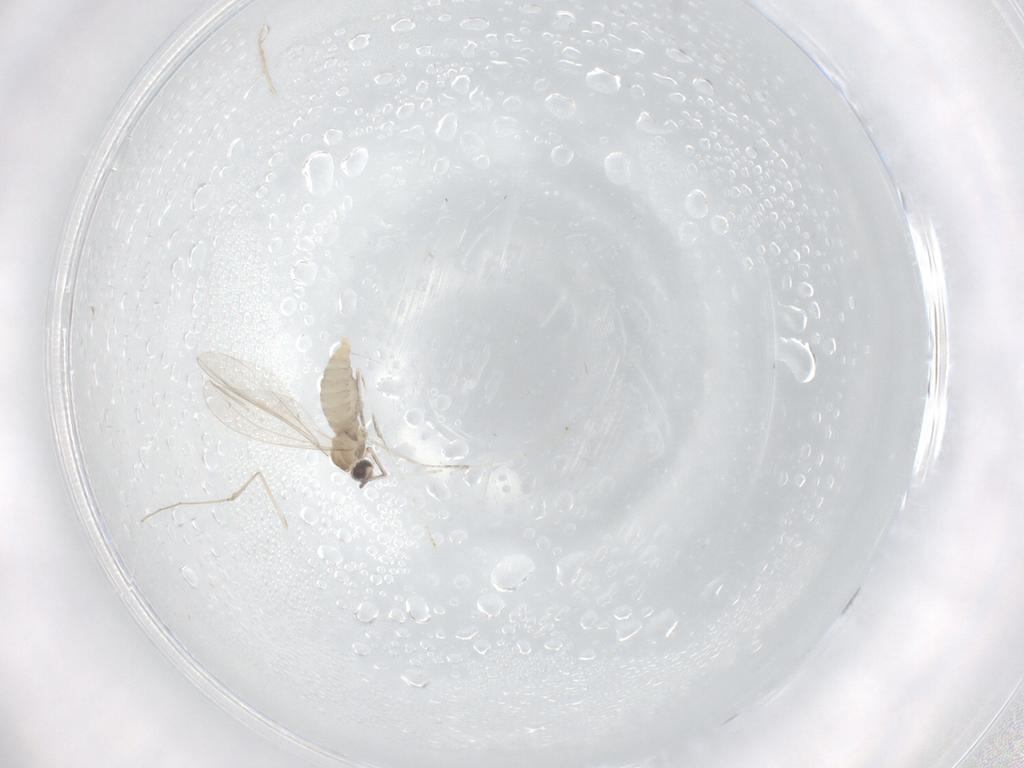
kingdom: Animalia
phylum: Arthropoda
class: Insecta
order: Diptera
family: Cecidomyiidae
